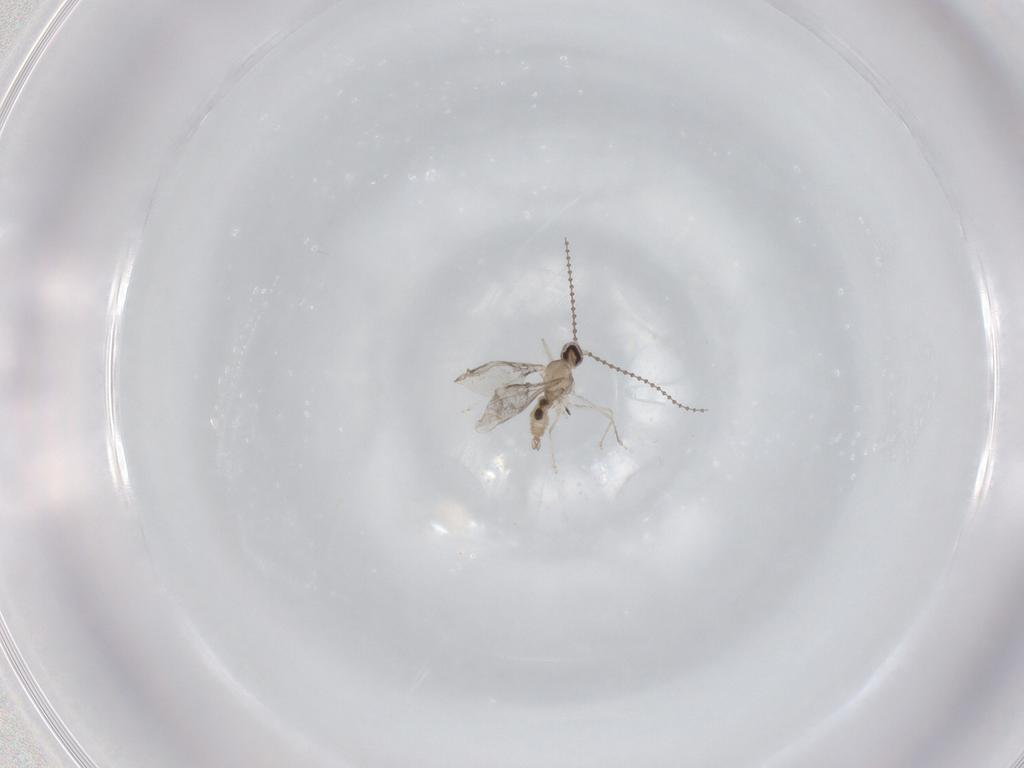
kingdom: Animalia
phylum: Arthropoda
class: Insecta
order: Diptera
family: Cecidomyiidae
